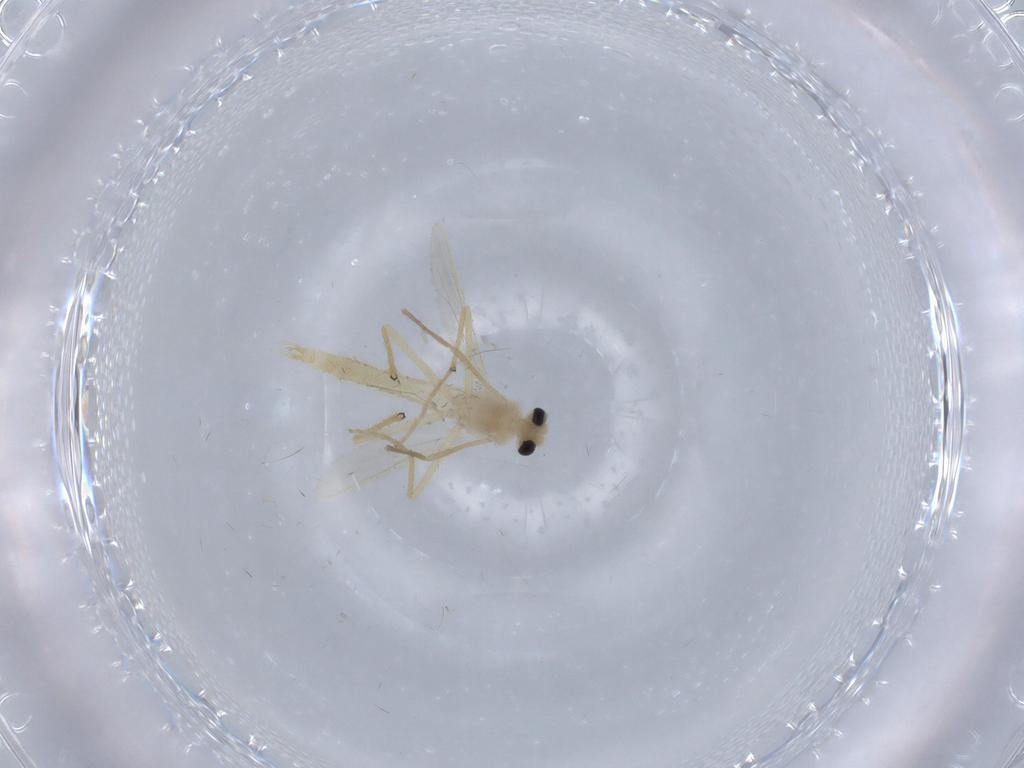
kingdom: Animalia
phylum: Arthropoda
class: Insecta
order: Diptera
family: Chironomidae
